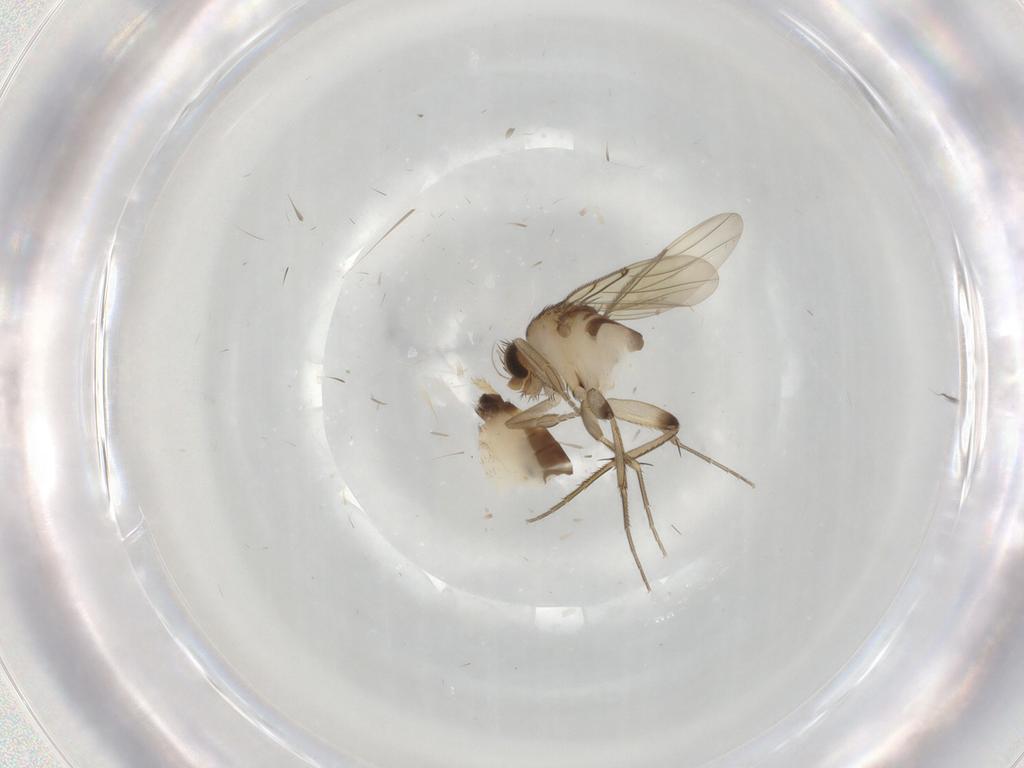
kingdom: Animalia
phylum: Arthropoda
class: Insecta
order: Diptera
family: Phoridae
